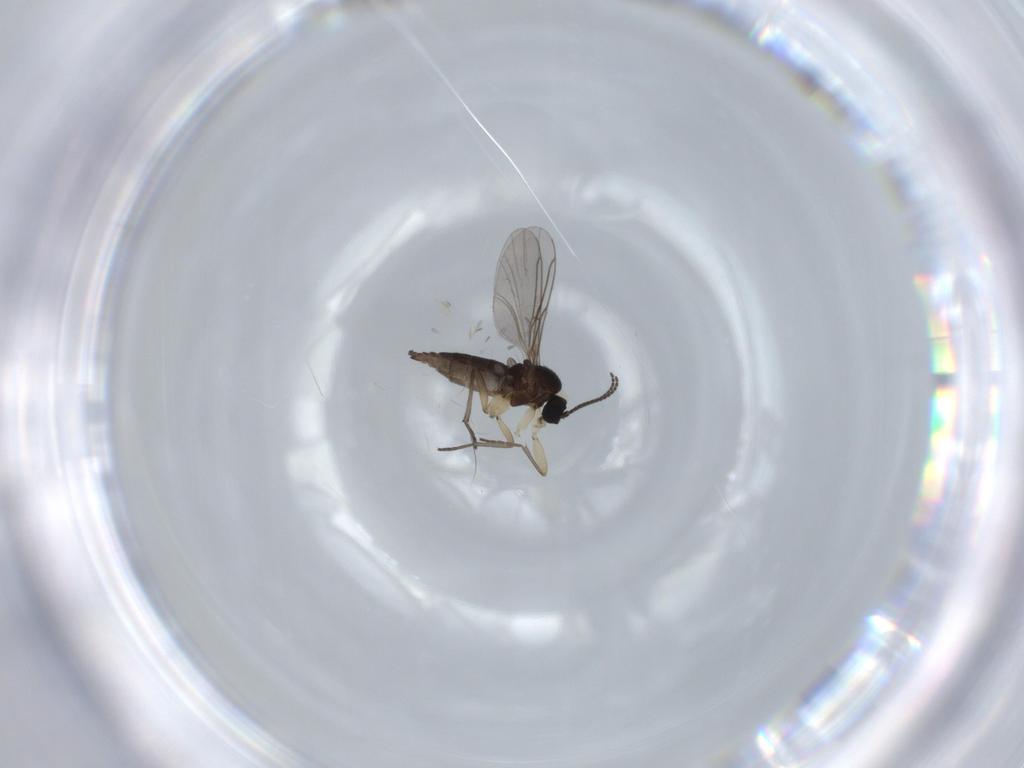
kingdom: Animalia
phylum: Arthropoda
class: Insecta
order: Diptera
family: Sciaridae
